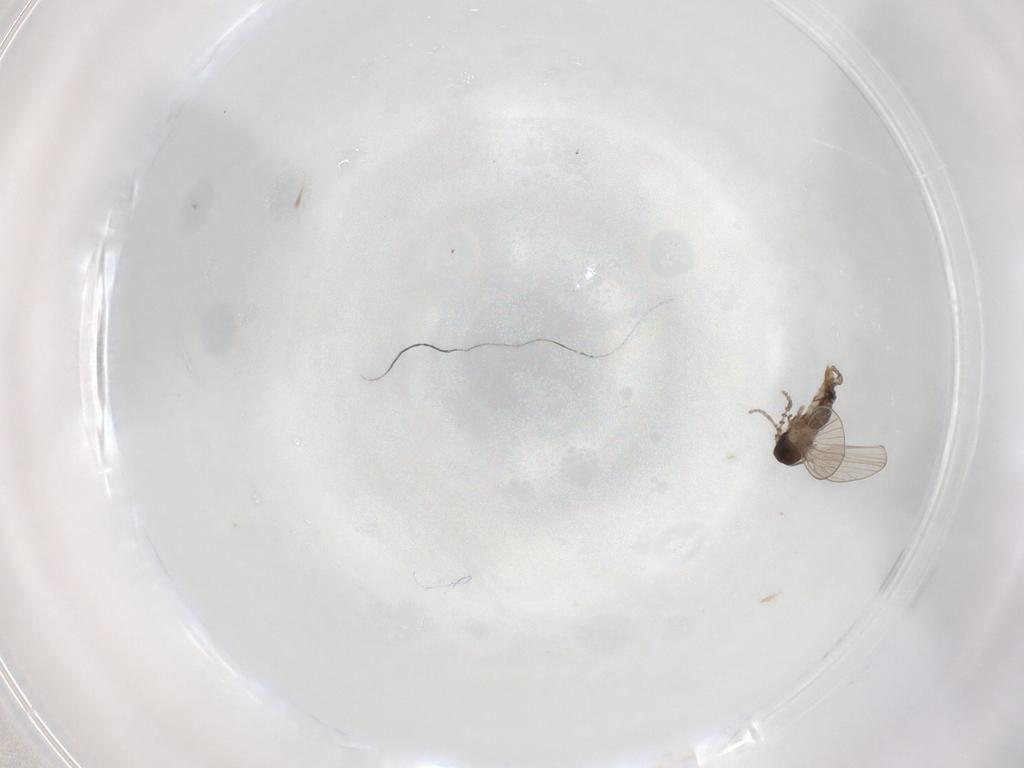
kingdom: Animalia
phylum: Arthropoda
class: Insecta
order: Diptera
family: Psychodidae
